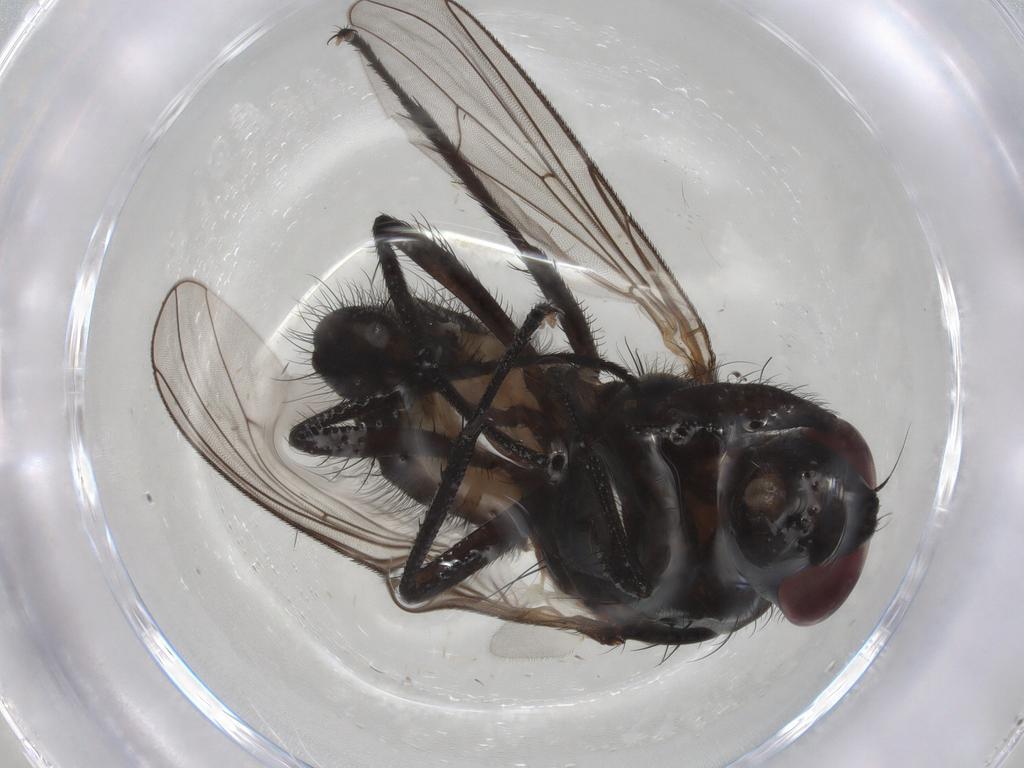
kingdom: Animalia
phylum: Arthropoda
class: Insecta
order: Diptera
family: Anthomyiidae
